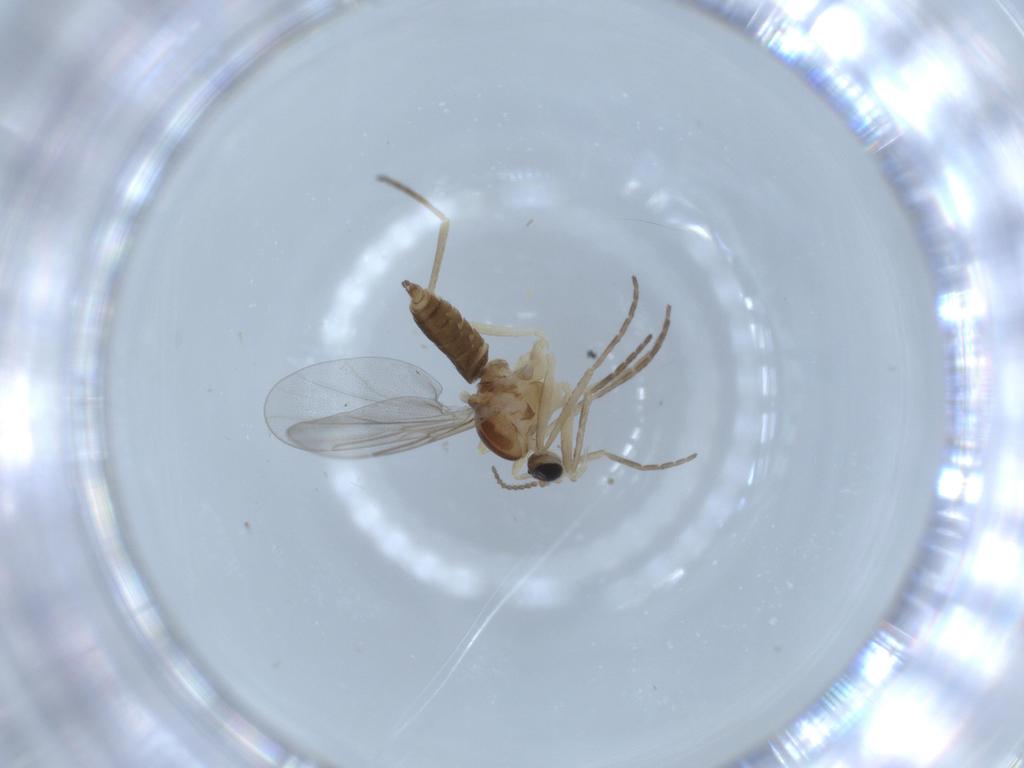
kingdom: Animalia
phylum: Arthropoda
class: Insecta
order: Diptera
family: Cecidomyiidae
